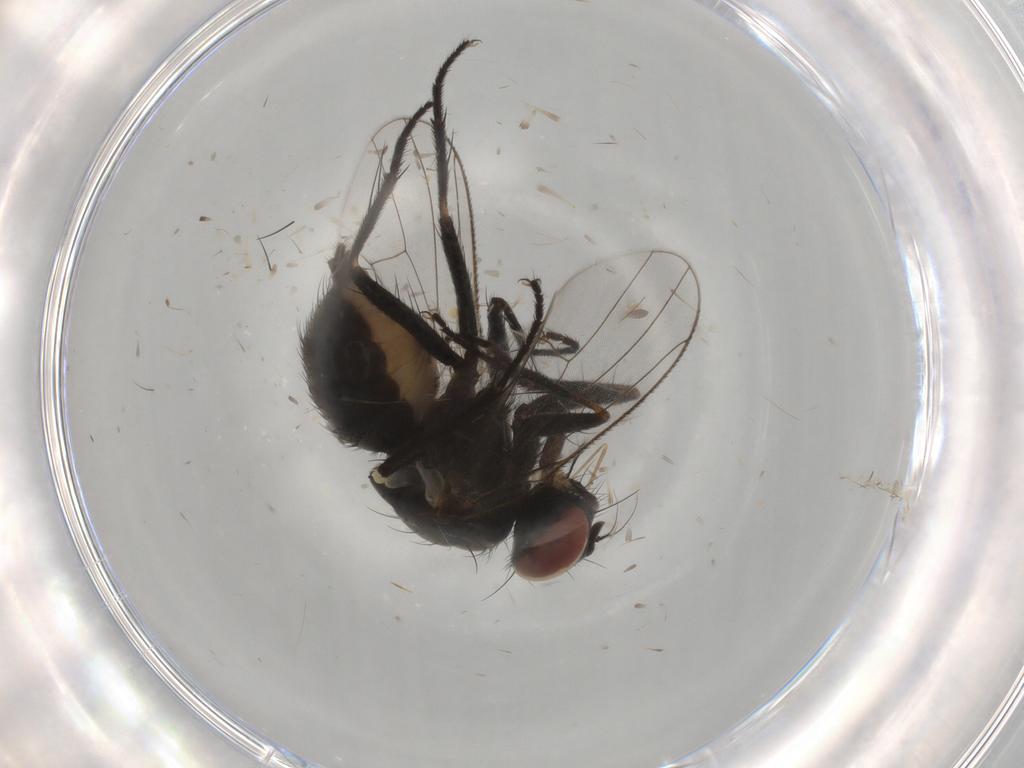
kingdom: Animalia
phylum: Arthropoda
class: Insecta
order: Diptera
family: Muscidae
